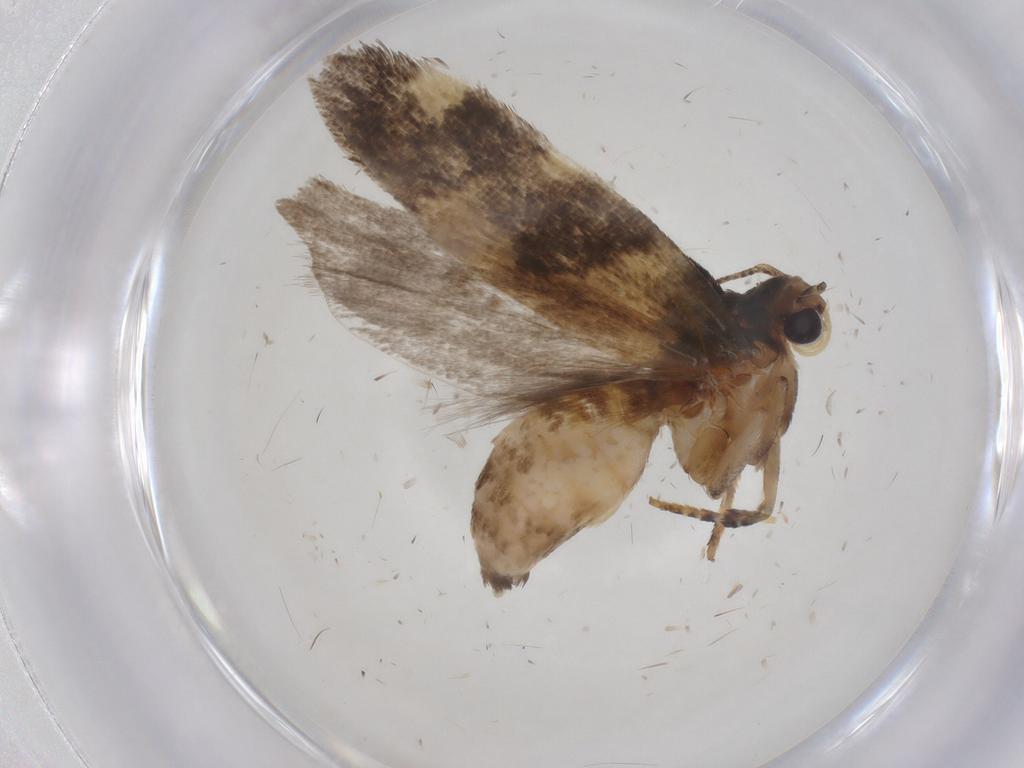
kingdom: Animalia
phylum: Arthropoda
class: Insecta
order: Lepidoptera
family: Gelechiidae
